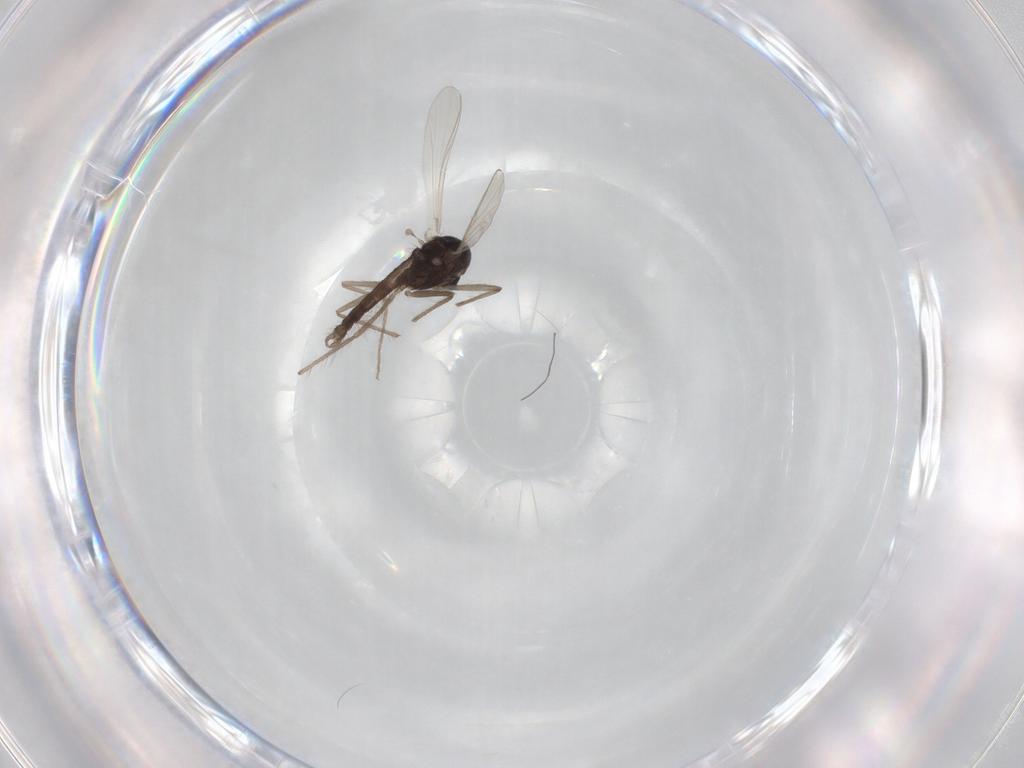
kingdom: Animalia
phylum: Arthropoda
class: Insecta
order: Diptera
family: Chironomidae
